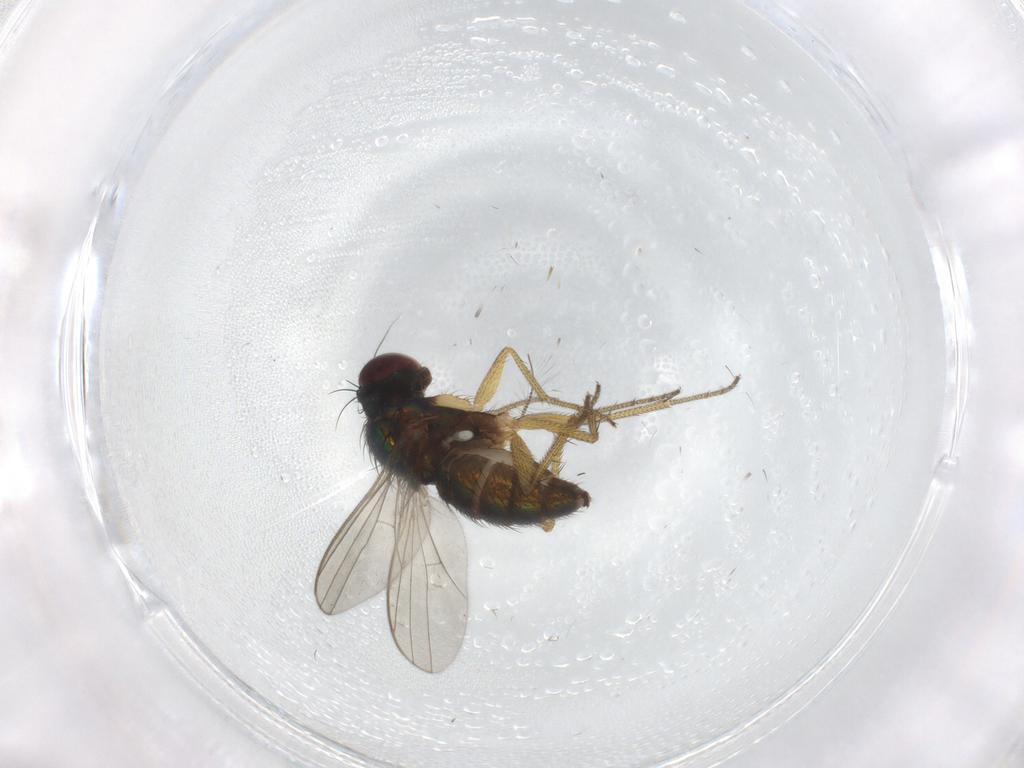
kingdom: Animalia
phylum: Arthropoda
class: Insecta
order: Diptera
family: Chironomidae
